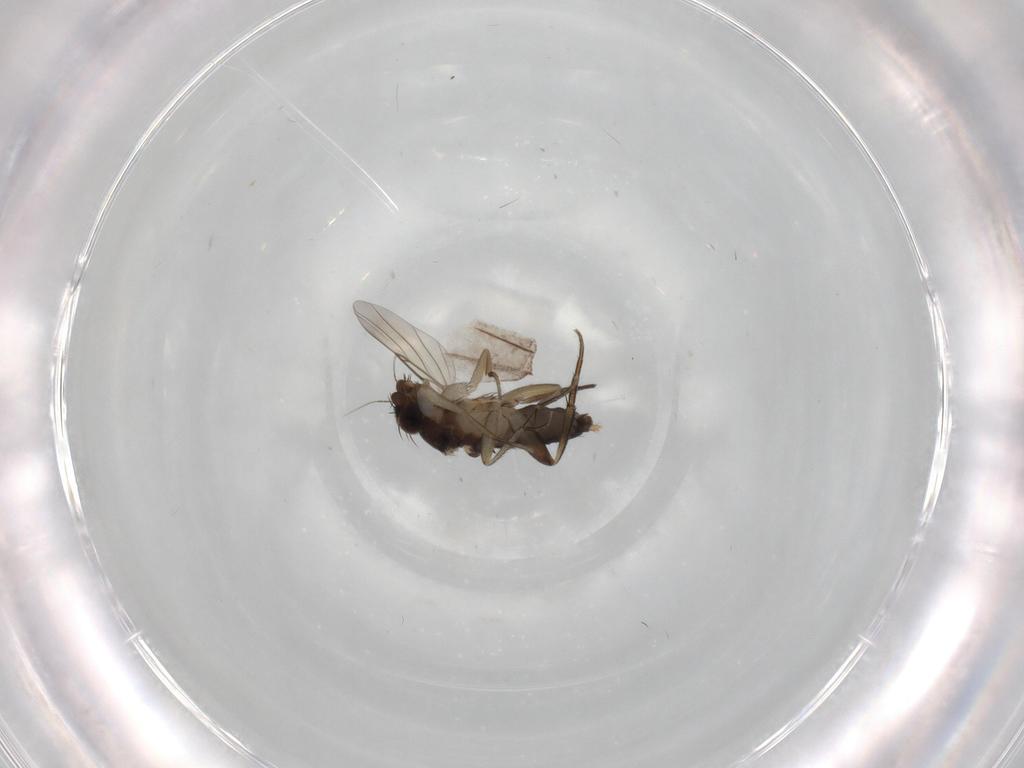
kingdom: Animalia
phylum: Arthropoda
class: Insecta
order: Diptera
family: Phoridae
